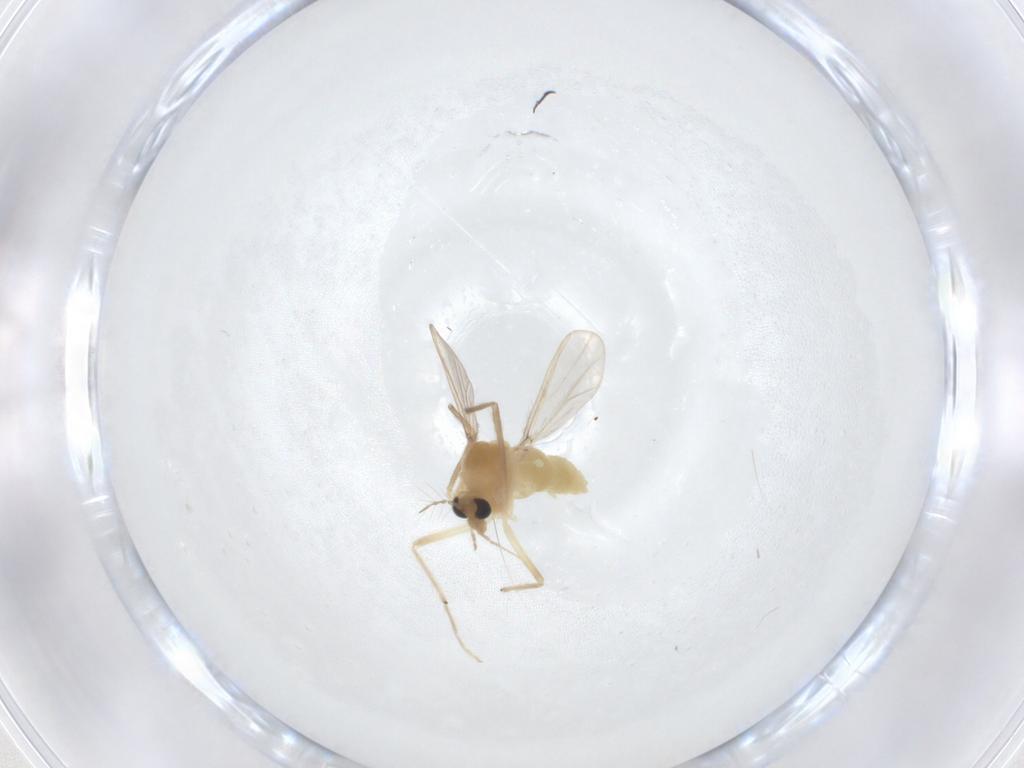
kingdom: Animalia
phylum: Arthropoda
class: Insecta
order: Diptera
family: Chironomidae
